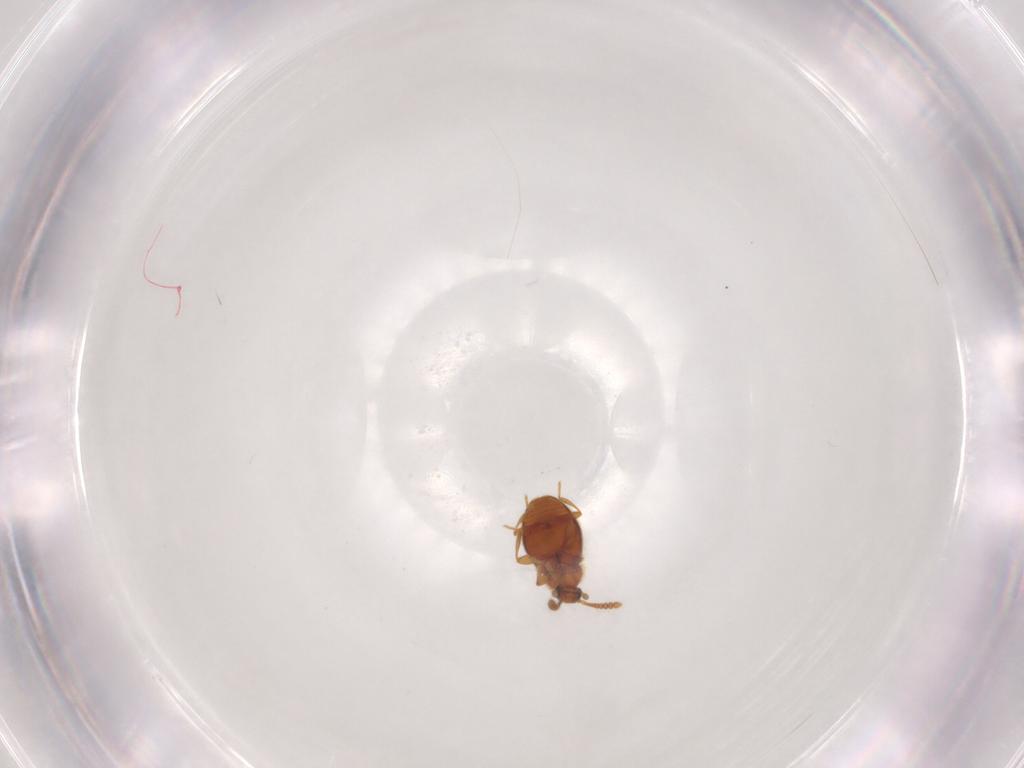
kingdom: Animalia
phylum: Arthropoda
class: Insecta
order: Coleoptera
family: Staphylinidae
